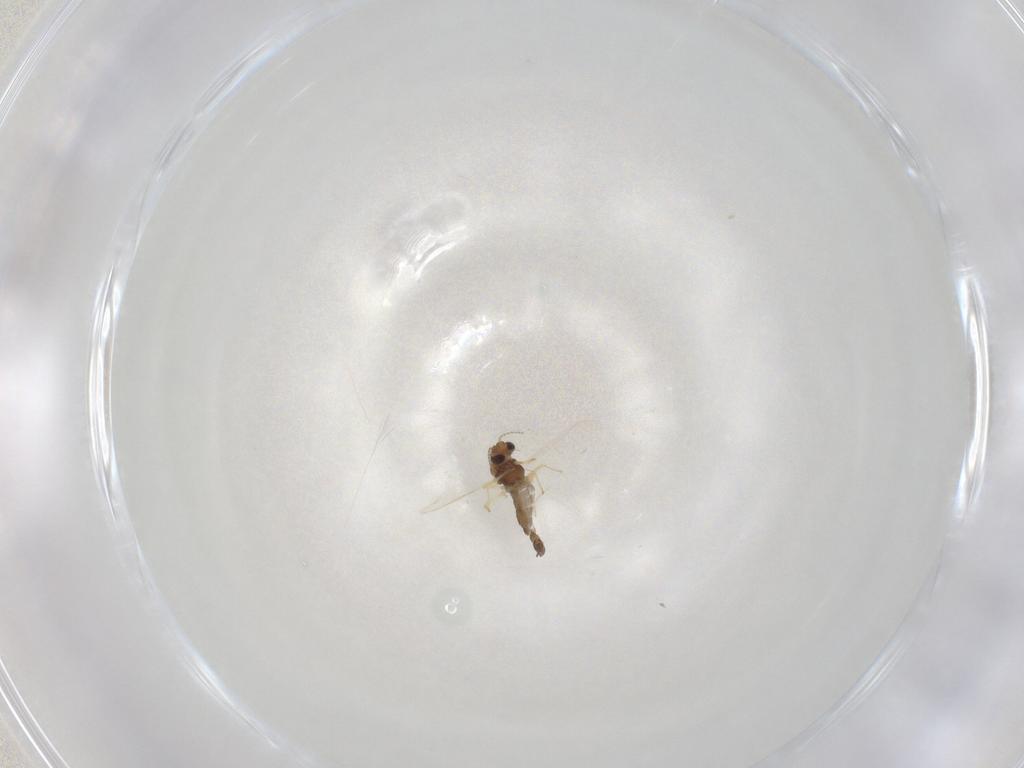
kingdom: Animalia
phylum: Arthropoda
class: Insecta
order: Diptera
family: Chironomidae
